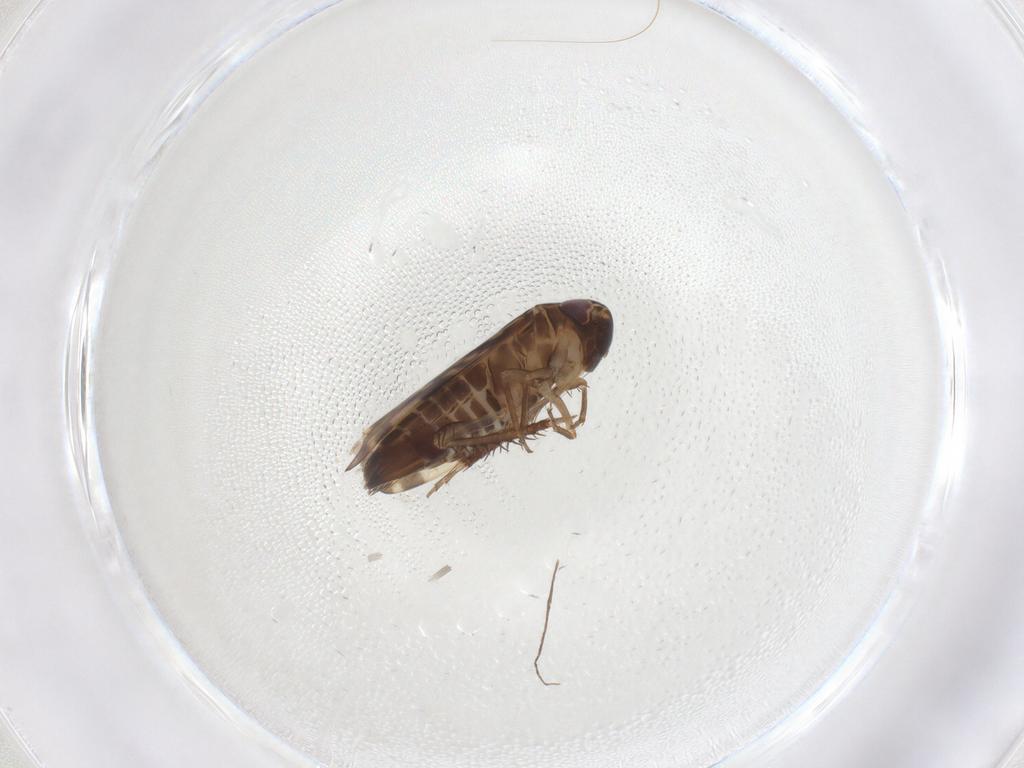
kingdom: Animalia
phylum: Arthropoda
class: Insecta
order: Hemiptera
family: Cicadellidae
